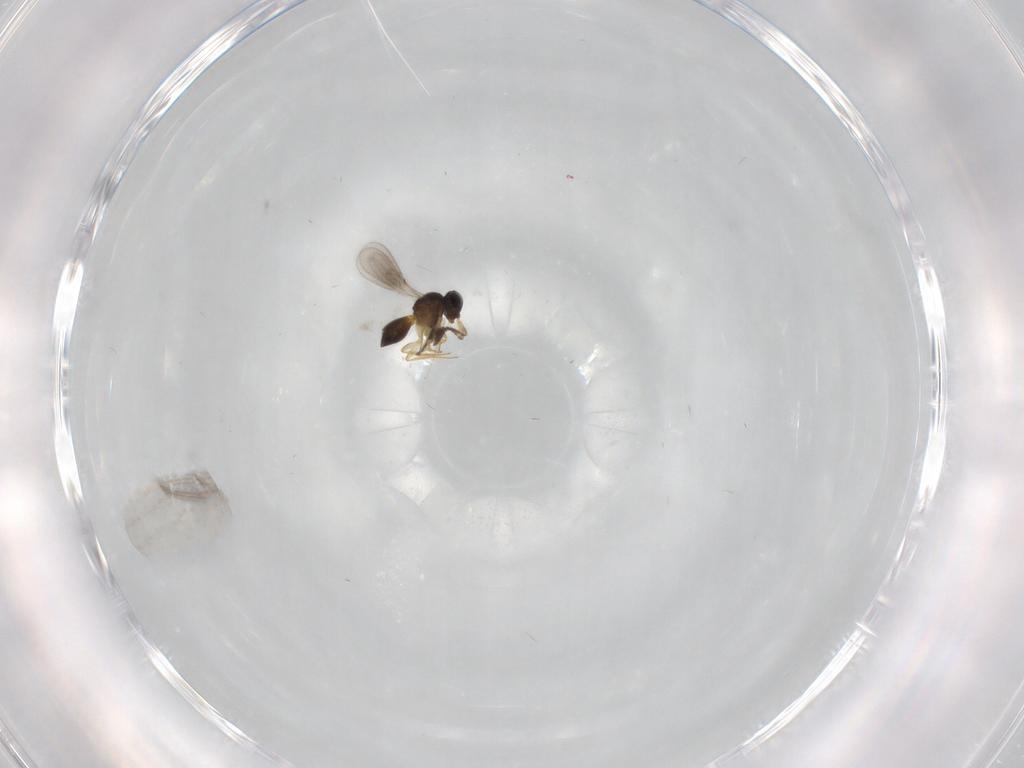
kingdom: Animalia
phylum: Arthropoda
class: Insecta
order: Hymenoptera
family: Scelionidae
